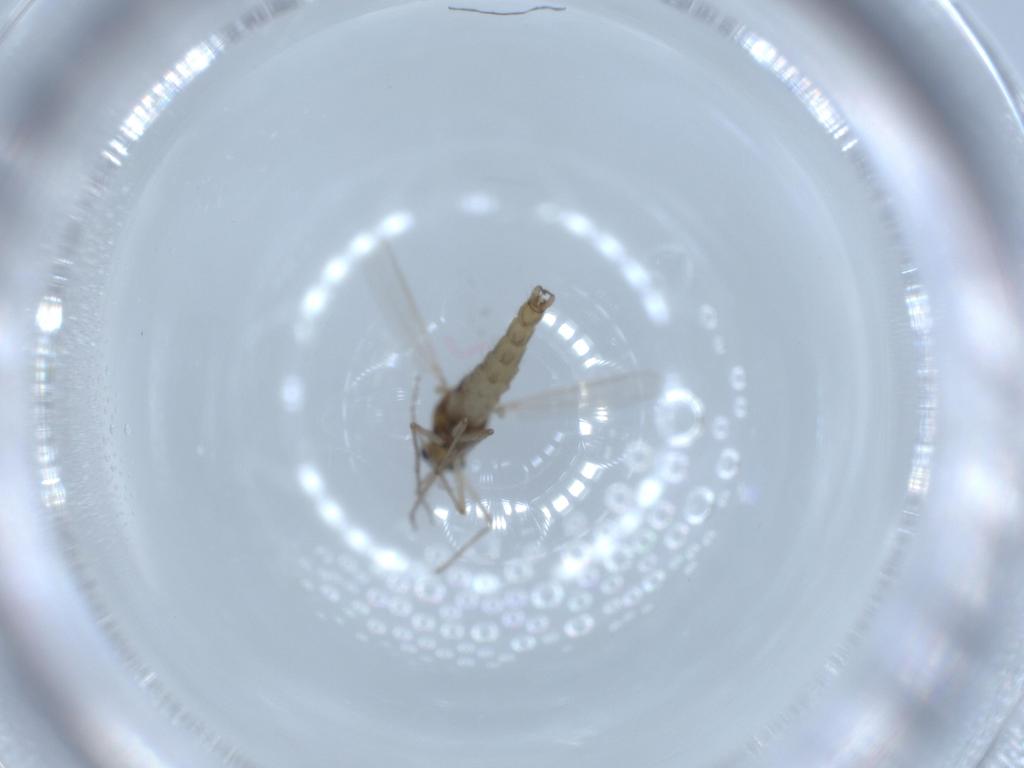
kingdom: Animalia
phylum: Arthropoda
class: Insecta
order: Diptera
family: Chironomidae
